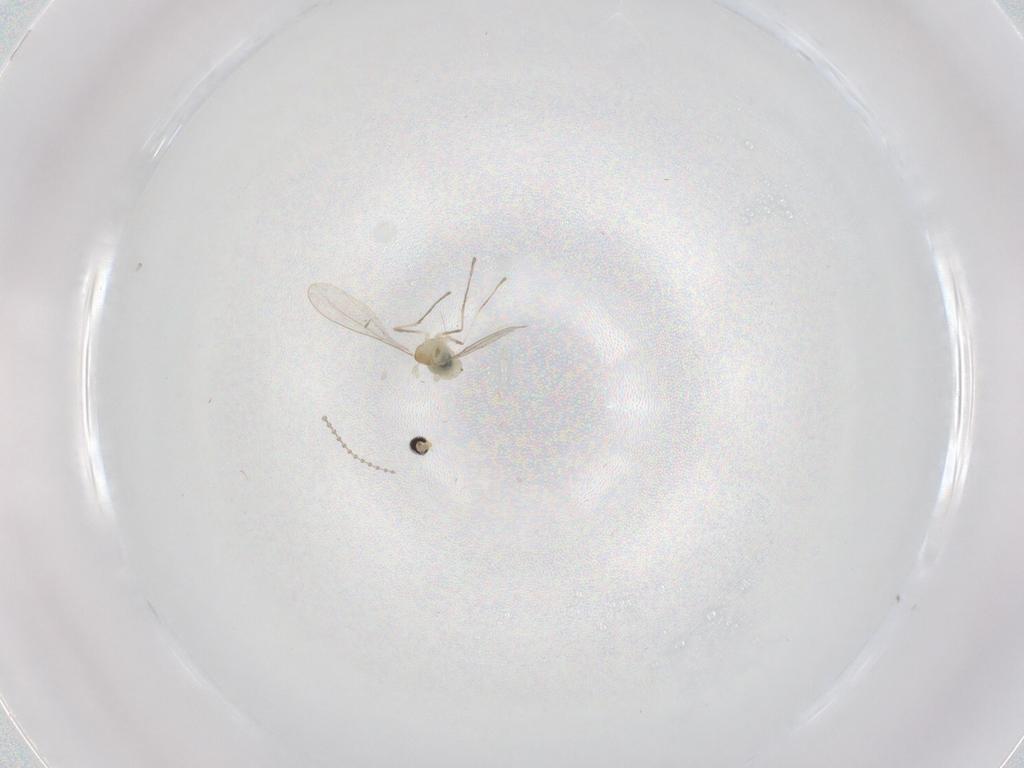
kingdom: Animalia
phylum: Arthropoda
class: Insecta
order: Diptera
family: Cecidomyiidae
